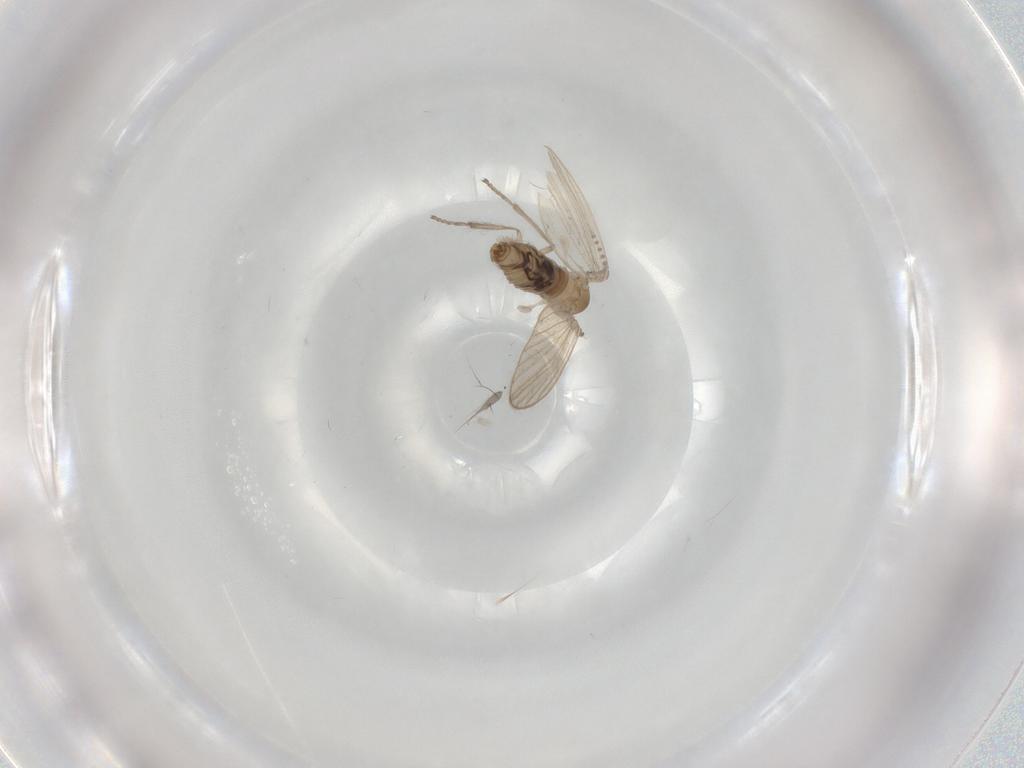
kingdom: Animalia
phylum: Arthropoda
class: Insecta
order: Diptera
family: Psychodidae
